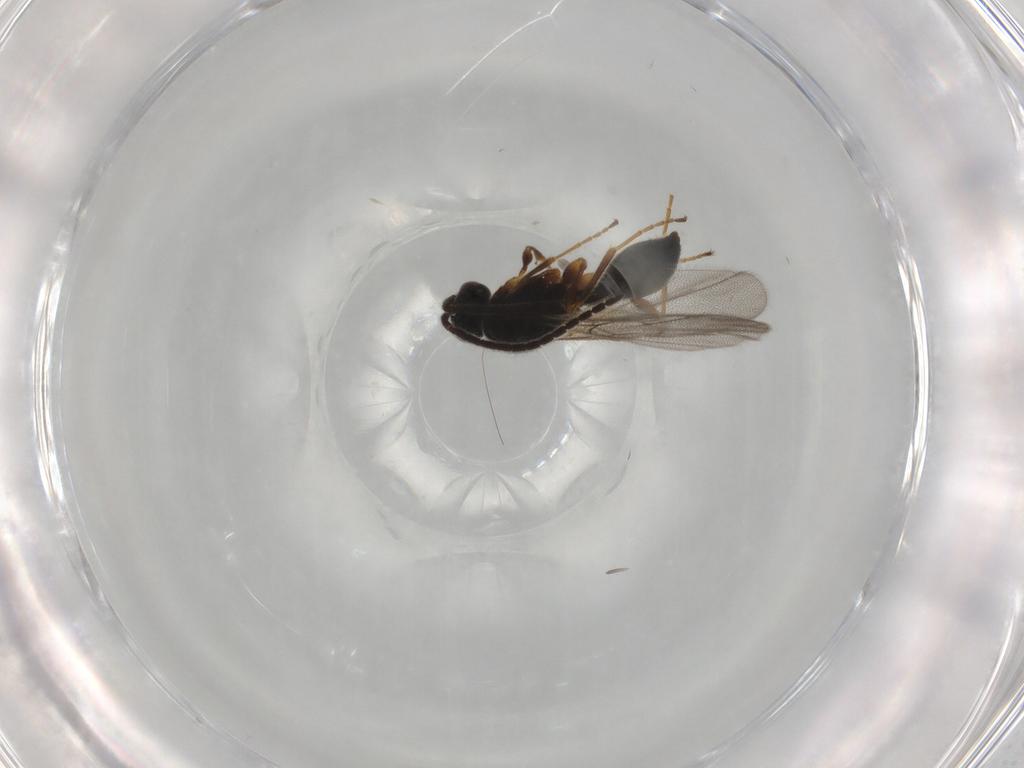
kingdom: Animalia
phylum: Arthropoda
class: Insecta
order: Hymenoptera
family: Diapriidae
